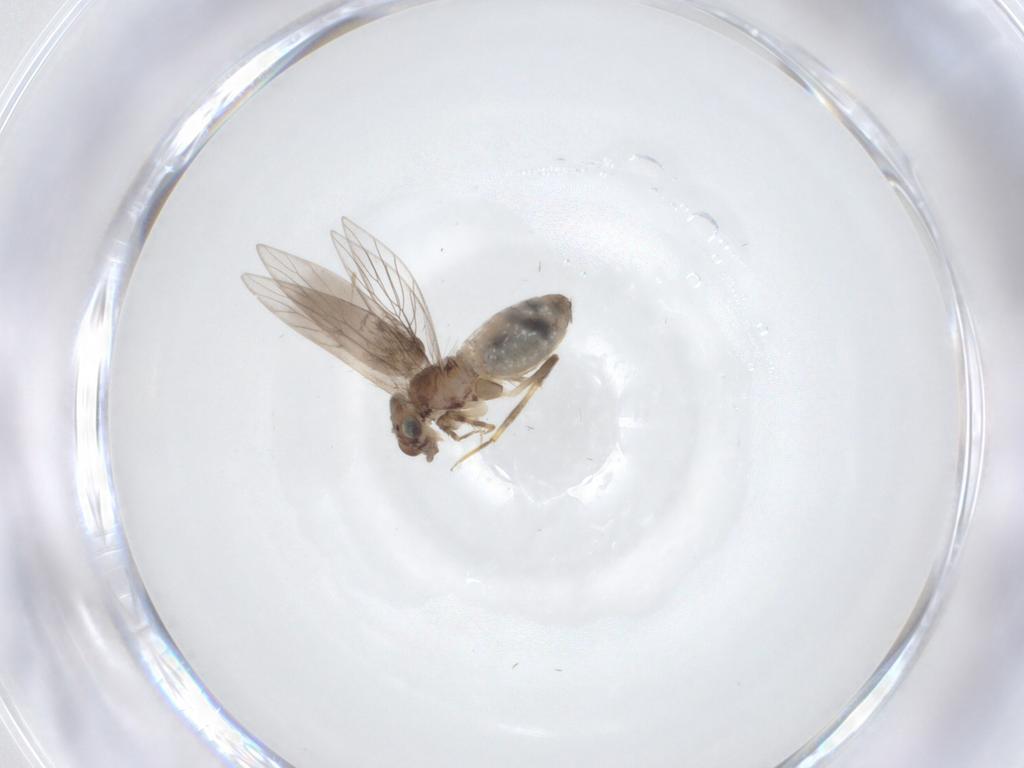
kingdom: Animalia
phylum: Arthropoda
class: Insecta
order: Psocodea
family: Lepidopsocidae
